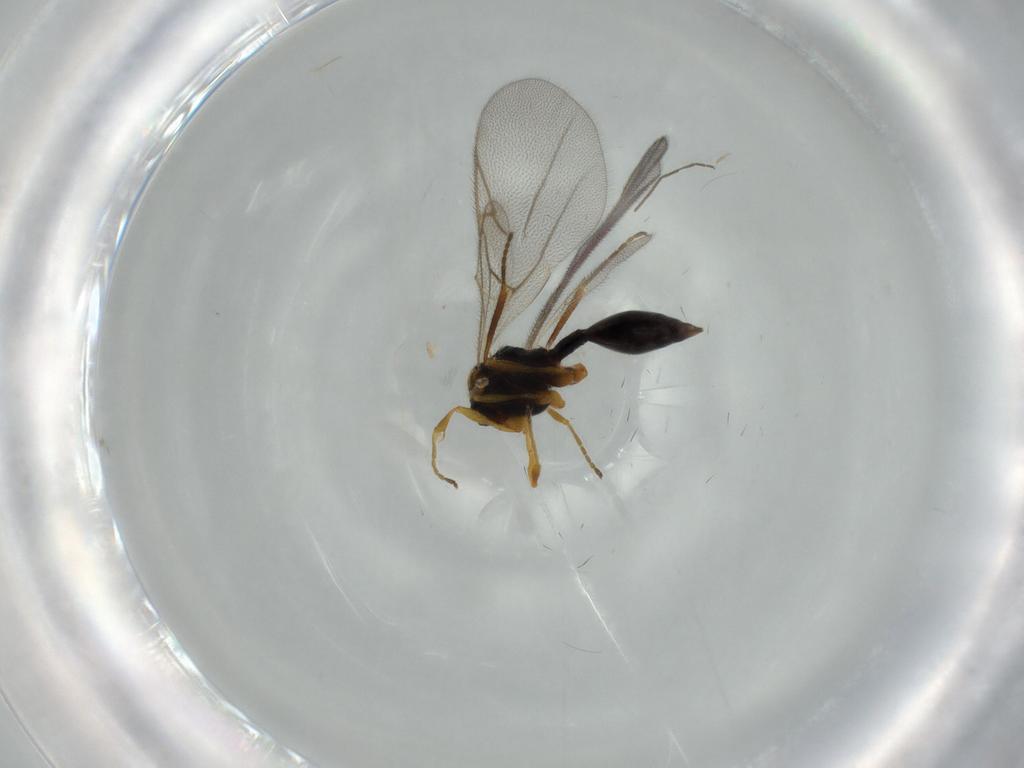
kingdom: Animalia
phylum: Arthropoda
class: Insecta
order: Hymenoptera
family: Diapriidae
